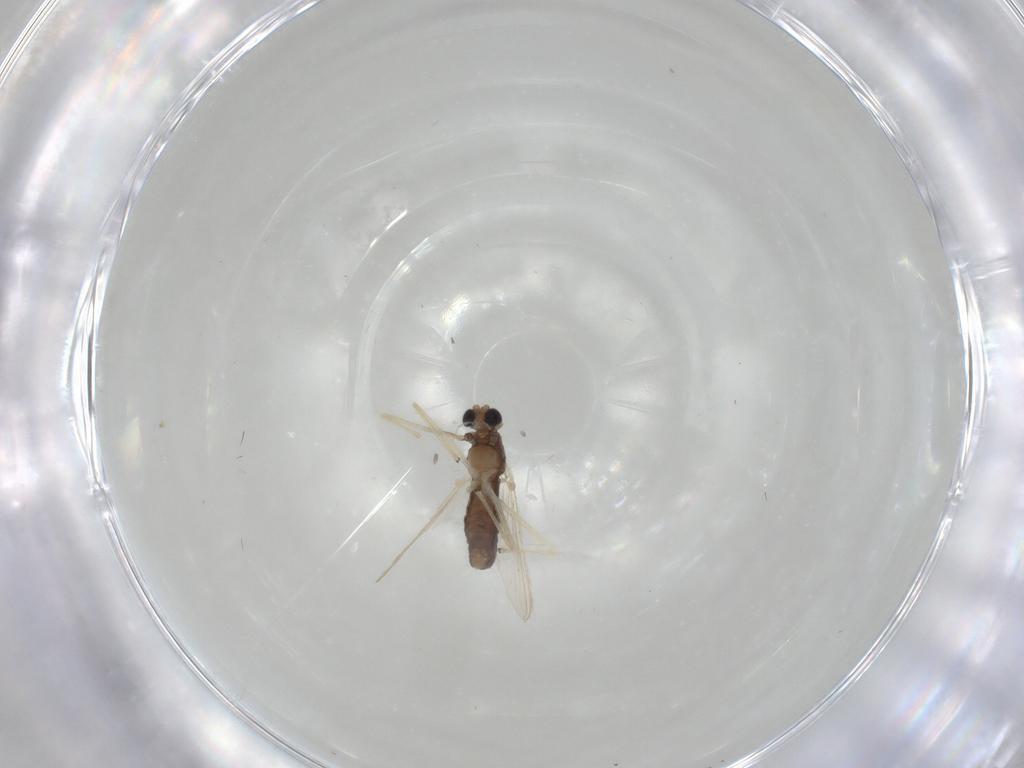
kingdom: Animalia
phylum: Arthropoda
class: Insecta
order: Diptera
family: Chironomidae
